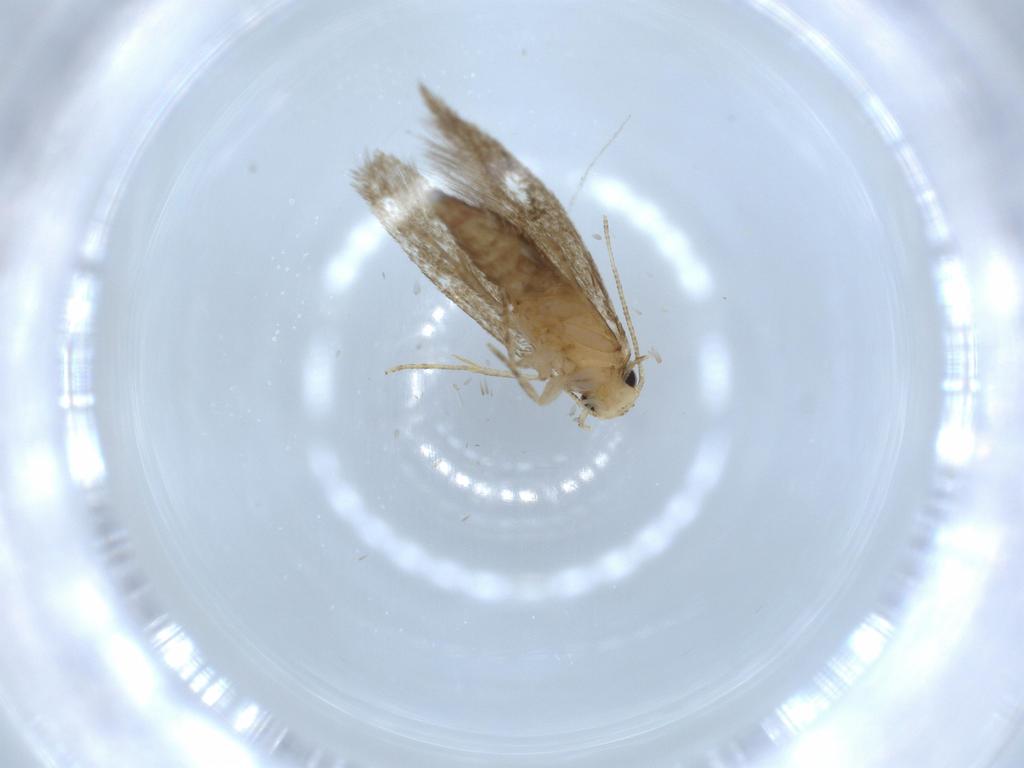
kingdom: Animalia
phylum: Arthropoda
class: Insecta
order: Lepidoptera
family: Tineidae
